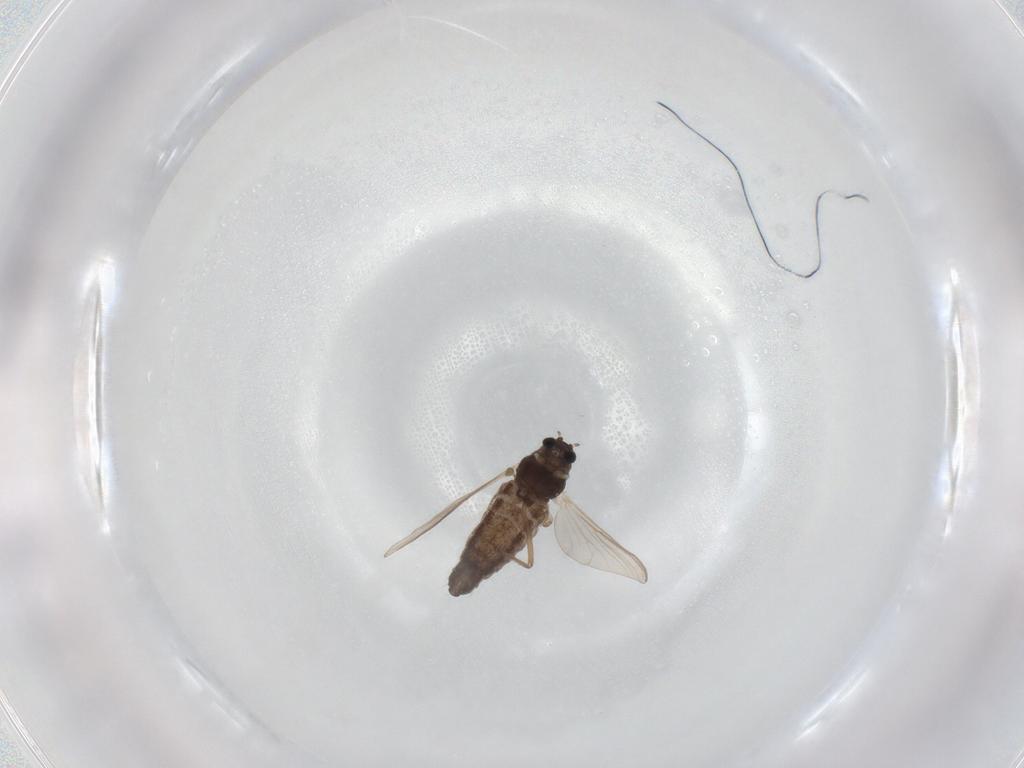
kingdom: Animalia
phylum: Arthropoda
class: Insecta
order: Diptera
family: Chironomidae
